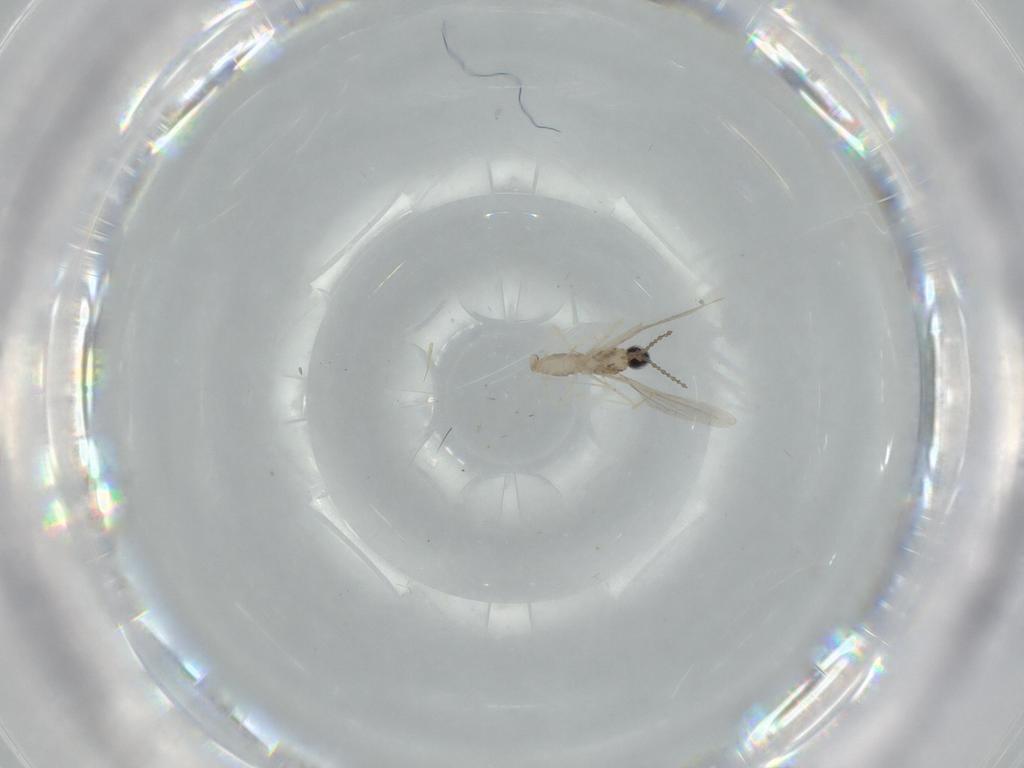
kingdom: Animalia
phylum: Arthropoda
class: Insecta
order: Diptera
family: Cecidomyiidae
